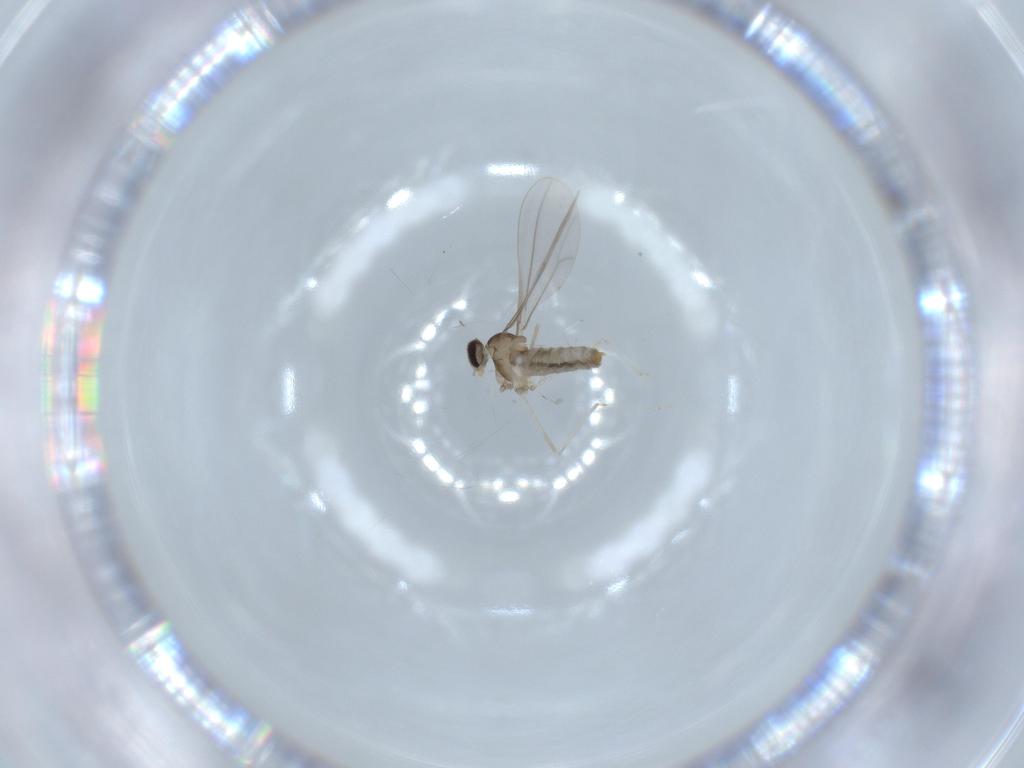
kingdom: Animalia
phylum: Arthropoda
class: Insecta
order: Diptera
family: Cecidomyiidae
